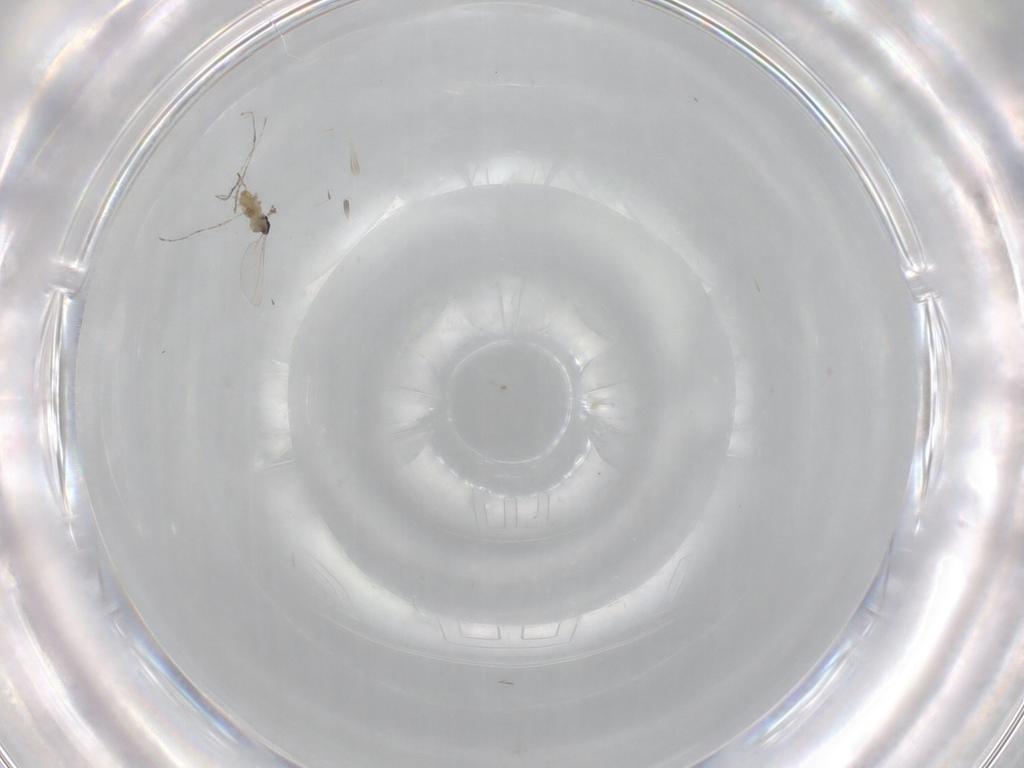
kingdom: Animalia
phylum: Arthropoda
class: Insecta
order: Diptera
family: Cecidomyiidae
